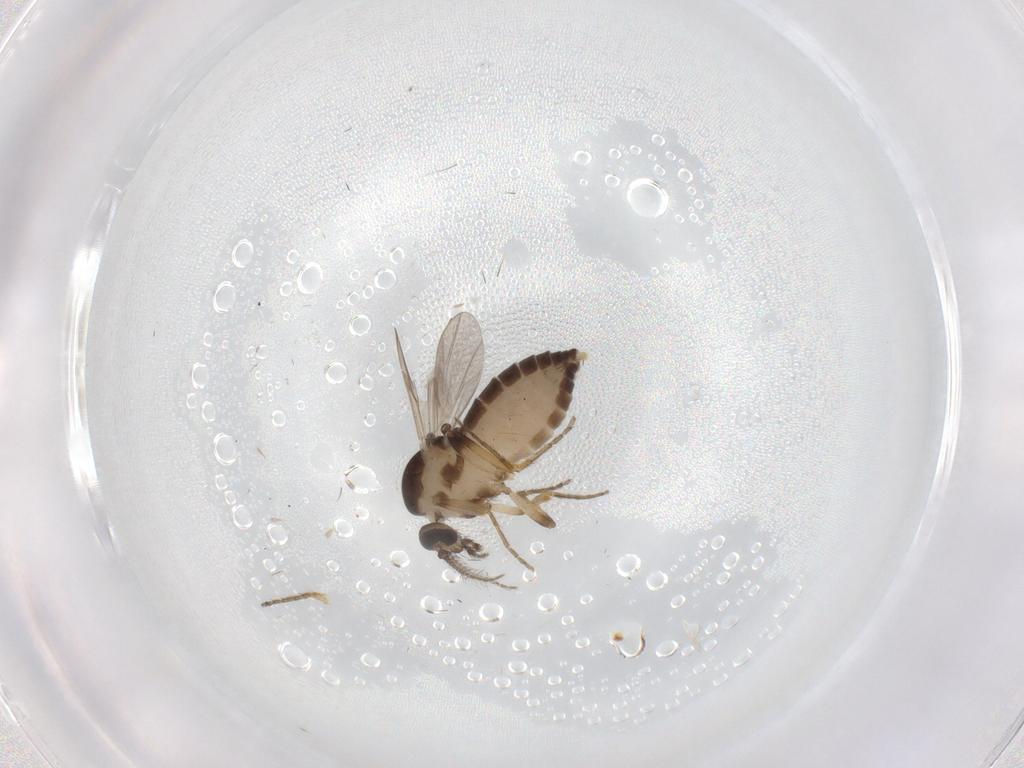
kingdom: Animalia
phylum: Arthropoda
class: Insecta
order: Diptera
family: Ceratopogonidae
